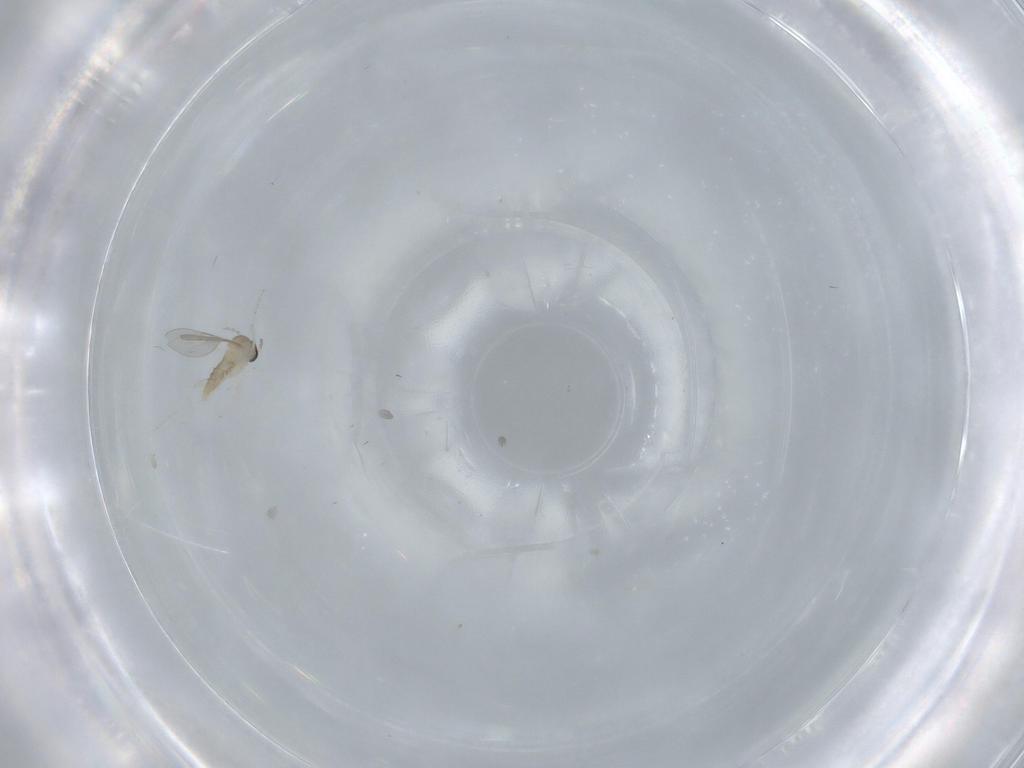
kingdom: Animalia
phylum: Arthropoda
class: Insecta
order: Diptera
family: Cecidomyiidae
